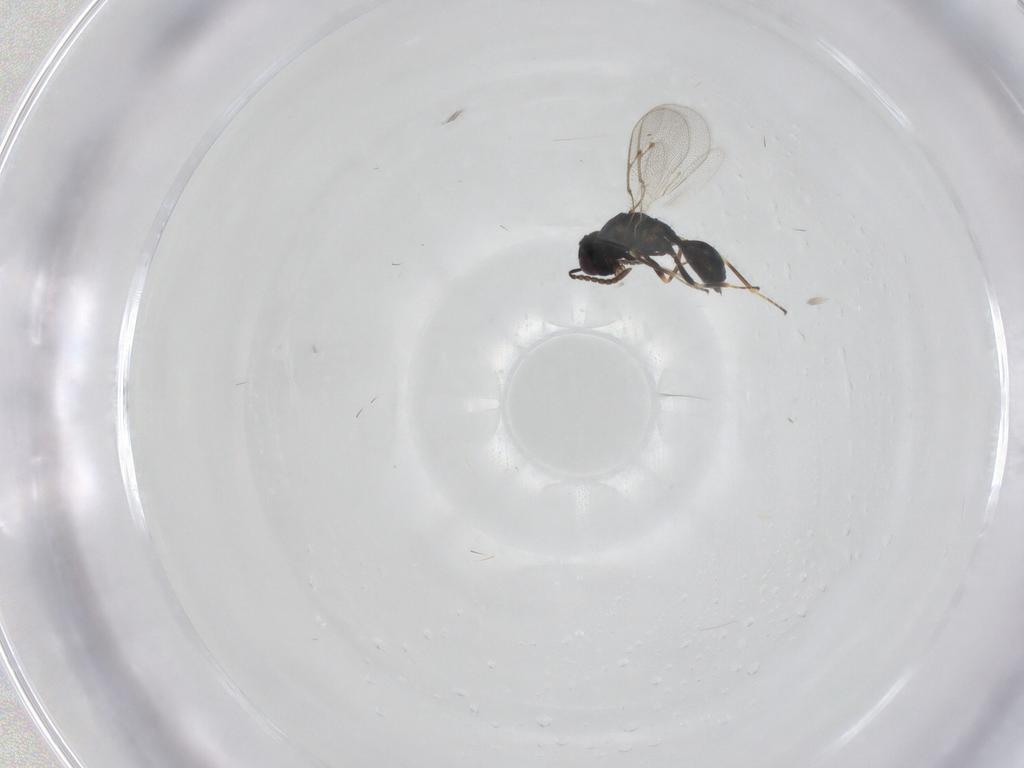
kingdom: Animalia
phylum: Arthropoda
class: Insecta
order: Hymenoptera
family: Pteromalidae
